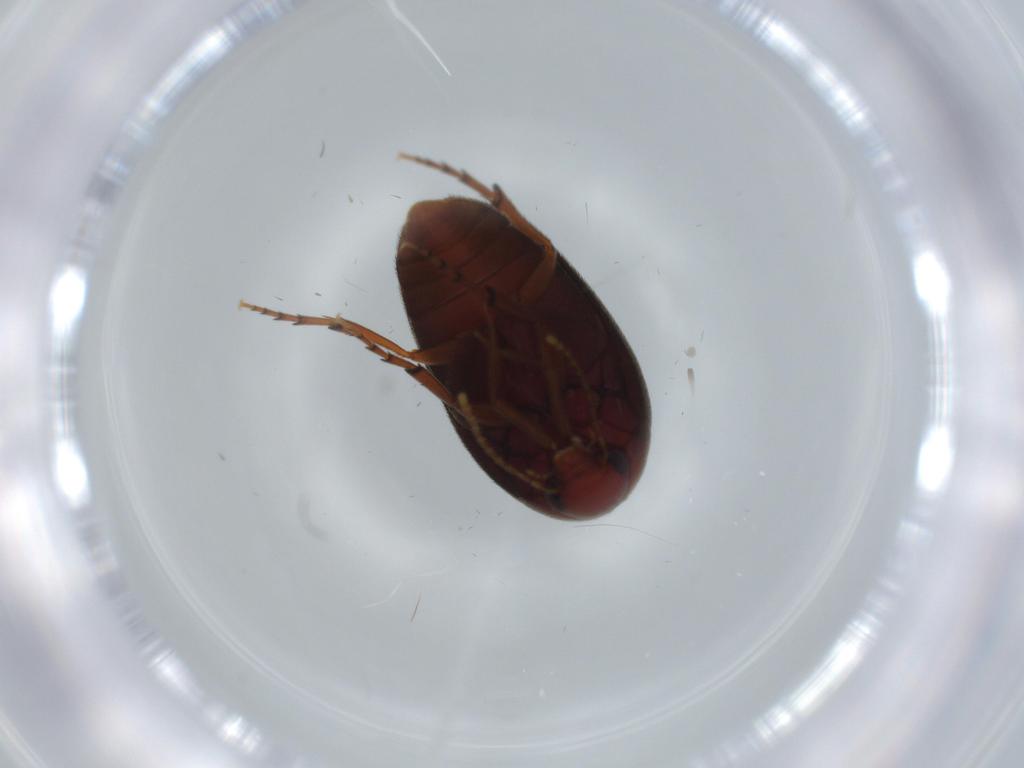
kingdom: Animalia
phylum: Arthropoda
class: Insecta
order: Coleoptera
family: Eucinetidae
